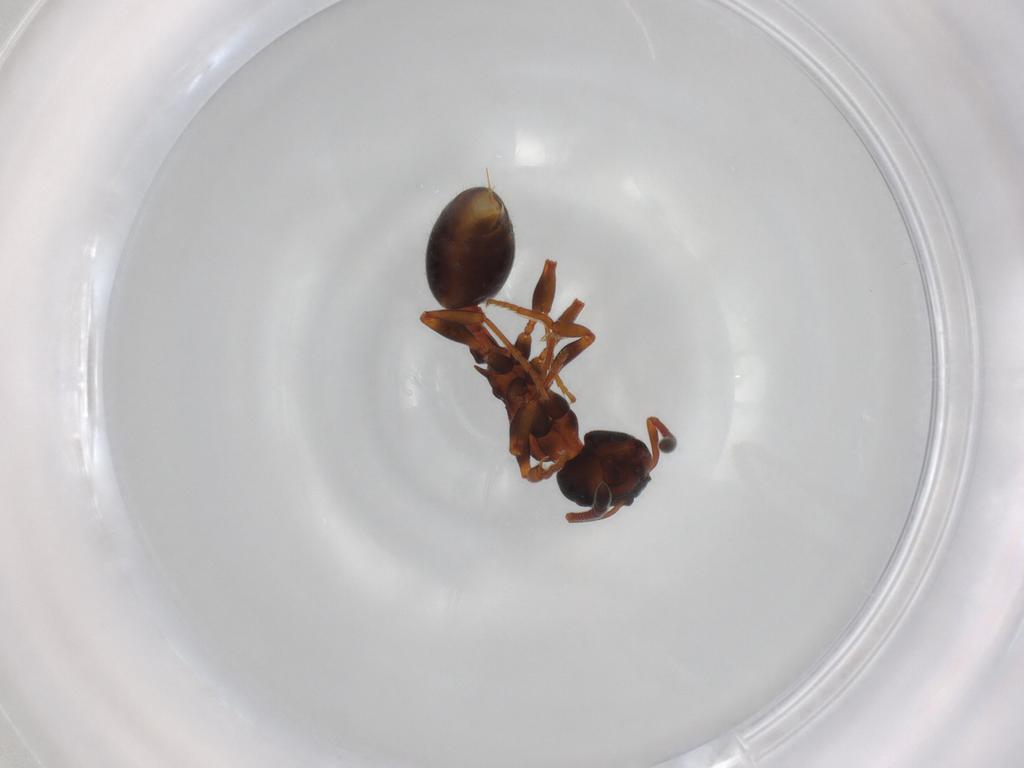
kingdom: Animalia
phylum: Arthropoda
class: Insecta
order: Hymenoptera
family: Formicidae
